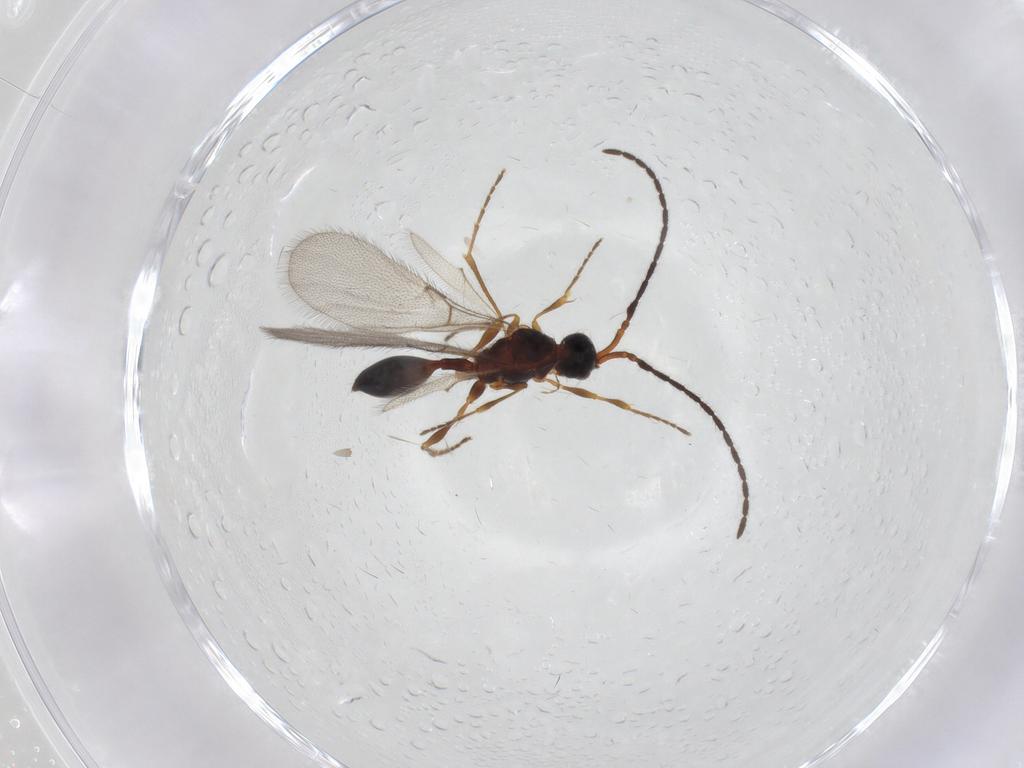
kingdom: Animalia
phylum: Arthropoda
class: Insecta
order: Hymenoptera
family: Diapriidae
